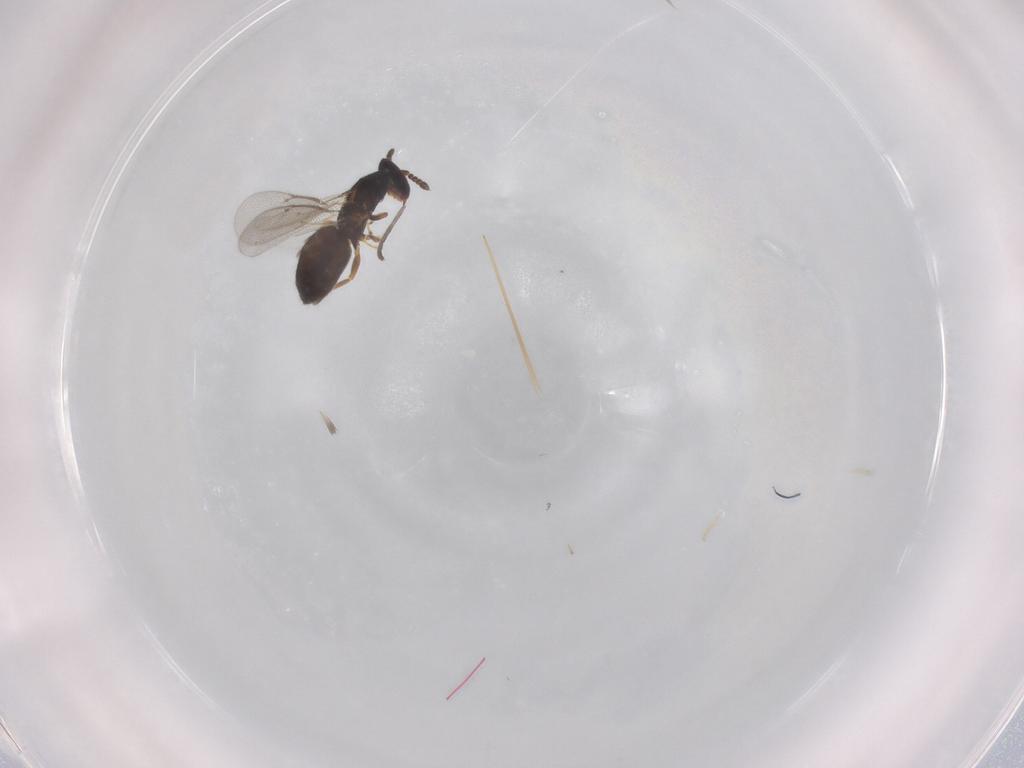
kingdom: Animalia
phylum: Arthropoda
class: Insecta
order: Hymenoptera
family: Eulophidae
